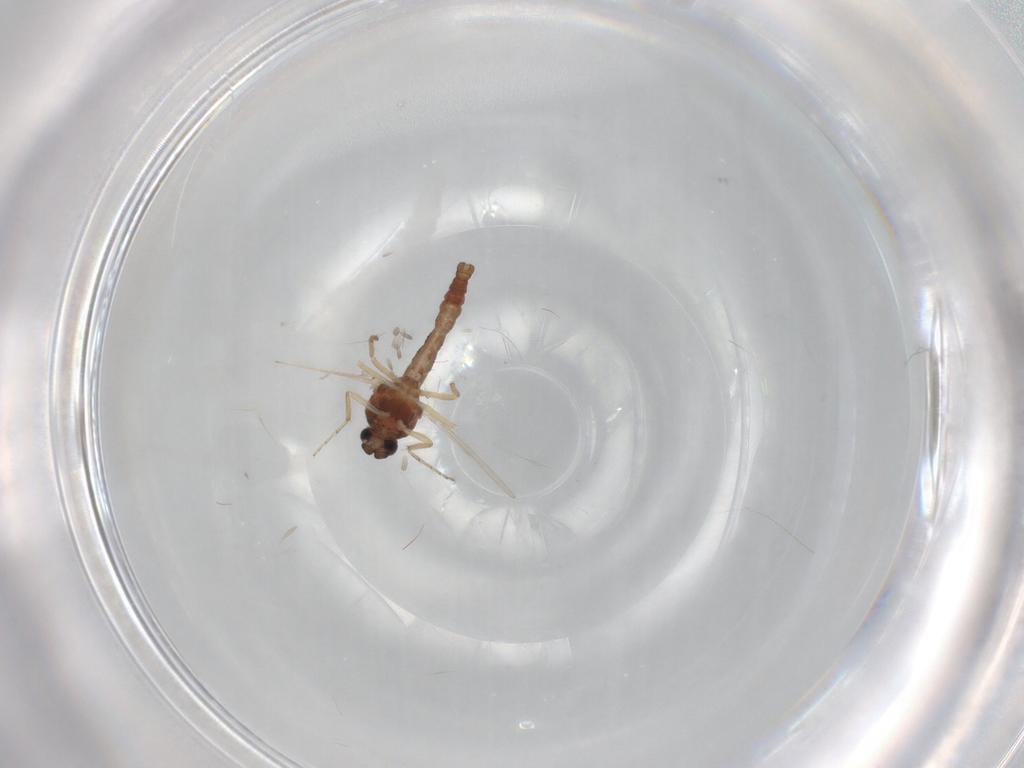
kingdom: Animalia
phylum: Arthropoda
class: Insecta
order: Diptera
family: Ceratopogonidae
